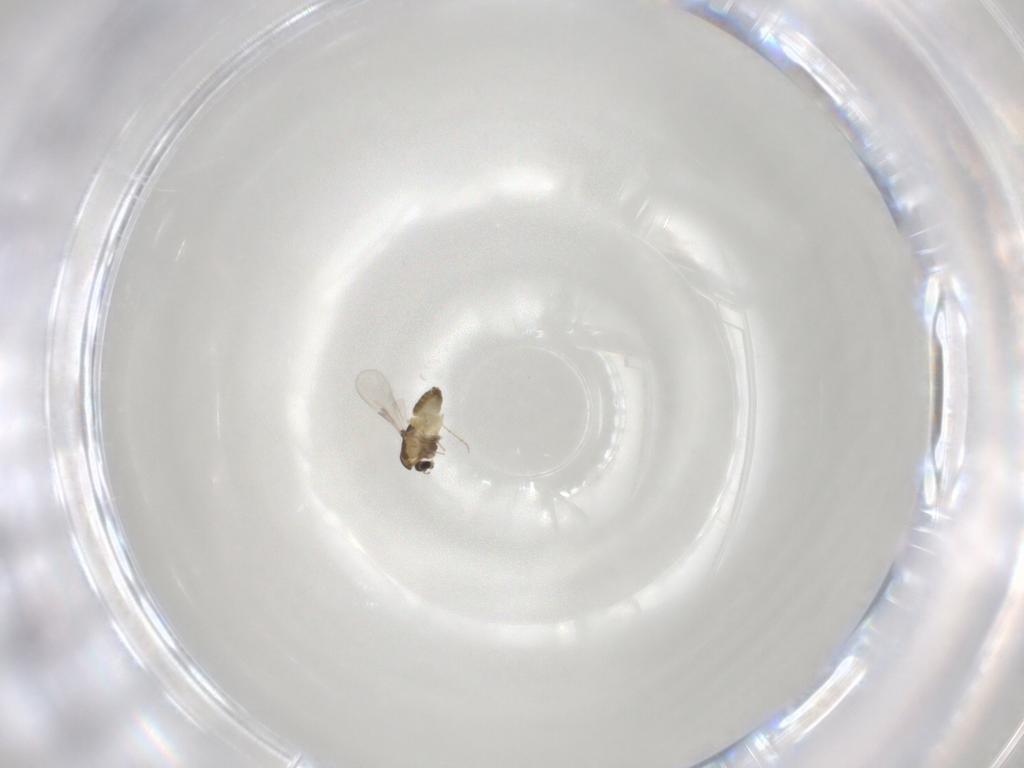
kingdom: Animalia
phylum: Arthropoda
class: Insecta
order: Diptera
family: Chironomidae
